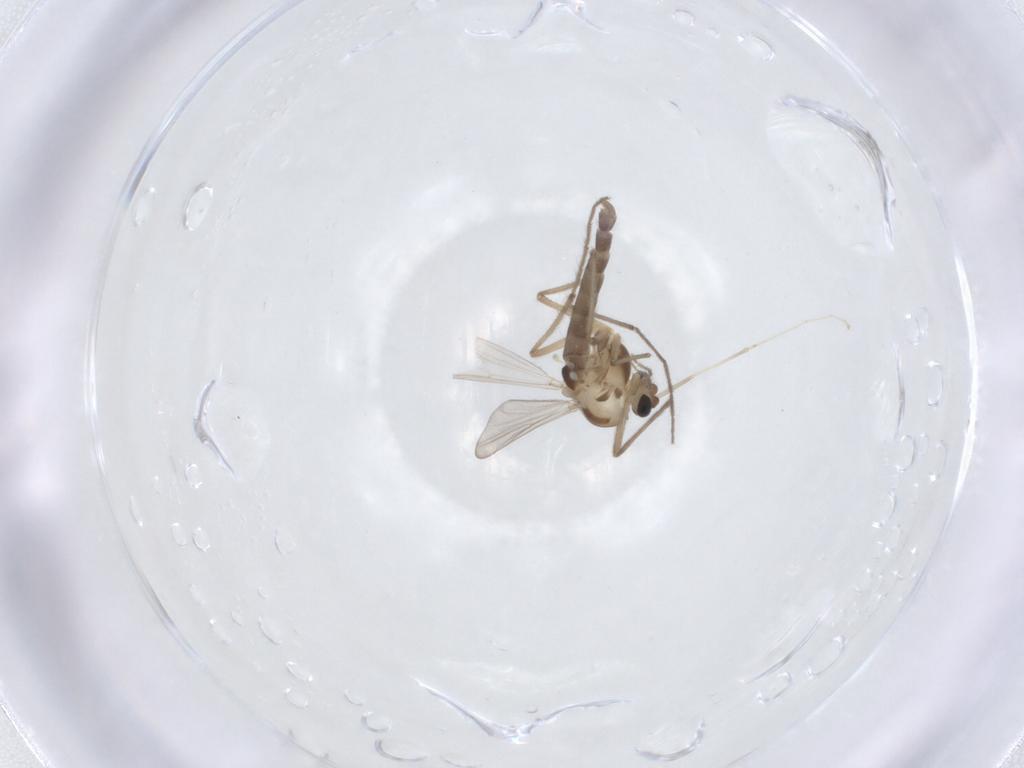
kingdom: Animalia
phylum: Arthropoda
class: Insecta
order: Diptera
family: Chironomidae
